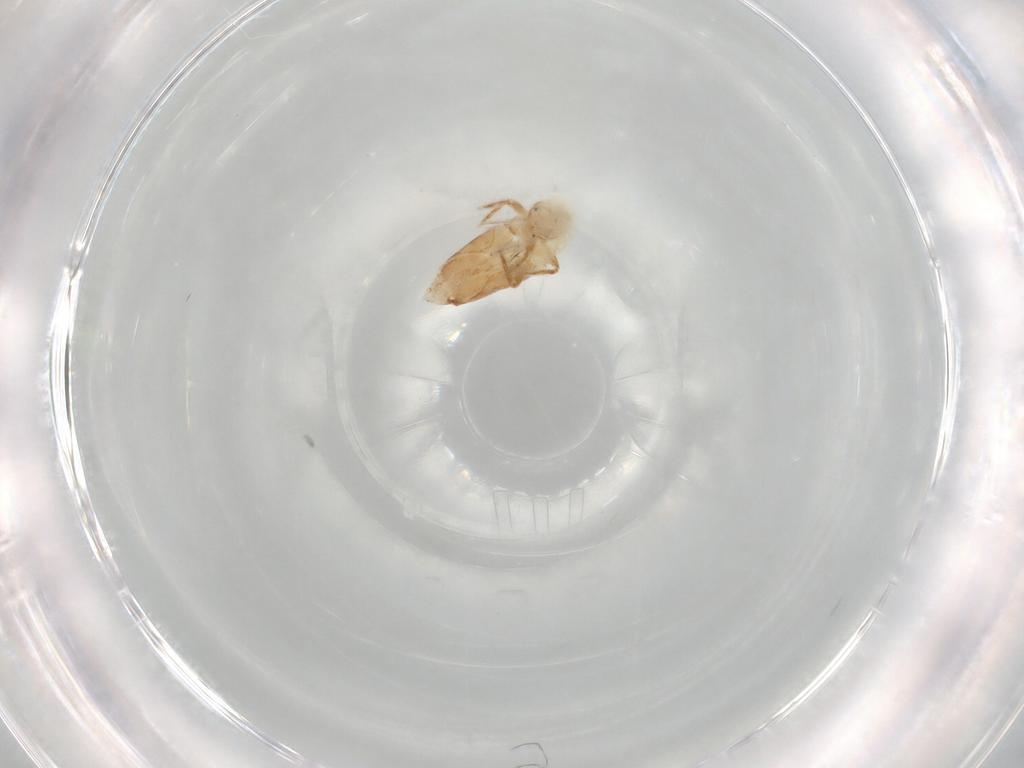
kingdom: Animalia
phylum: Arthropoda
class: Collembola
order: Entomobryomorpha
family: Entomobryidae
